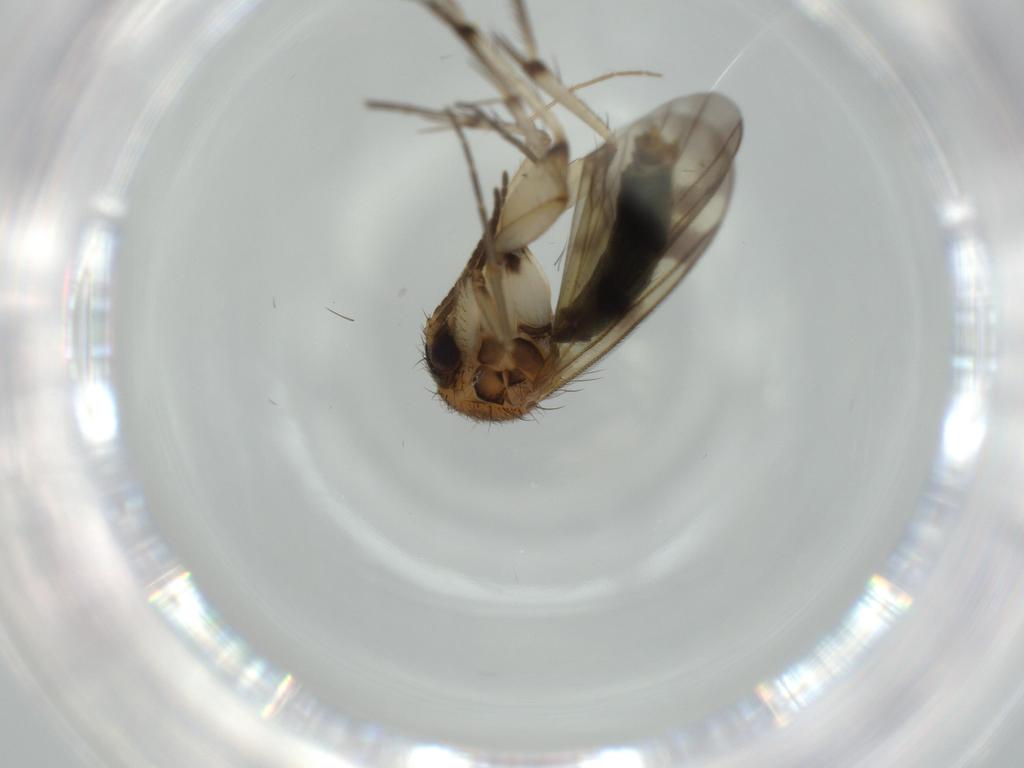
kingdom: Animalia
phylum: Arthropoda
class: Insecta
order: Diptera
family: Mycetophilidae
